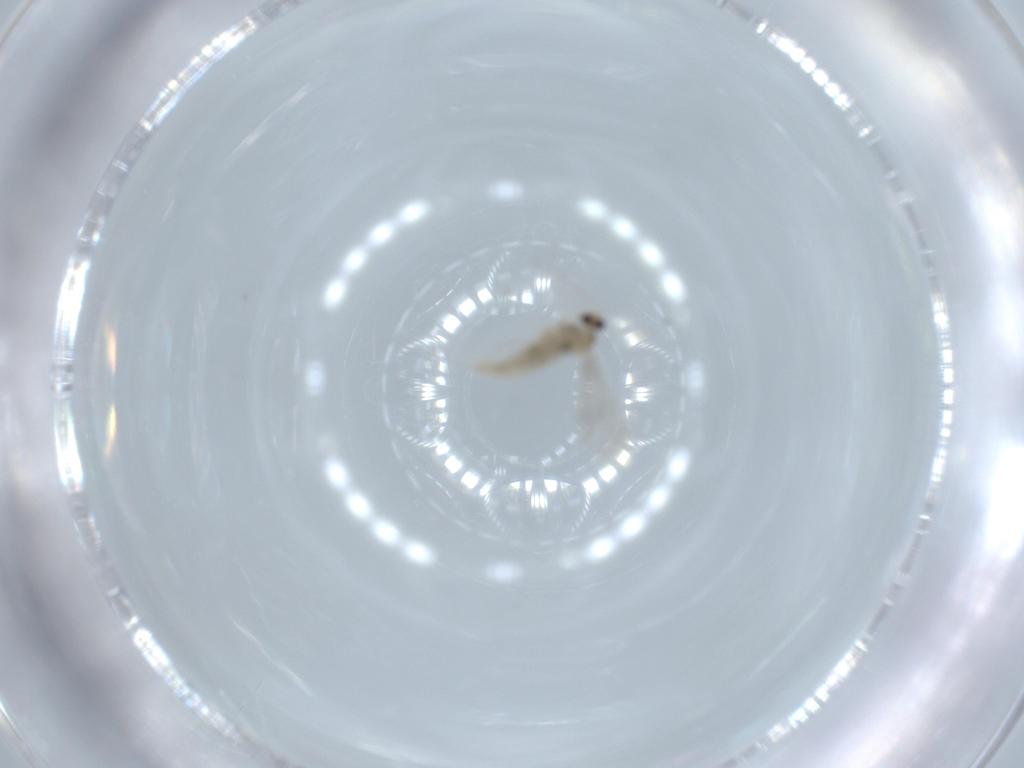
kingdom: Animalia
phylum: Arthropoda
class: Insecta
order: Diptera
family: Cecidomyiidae
